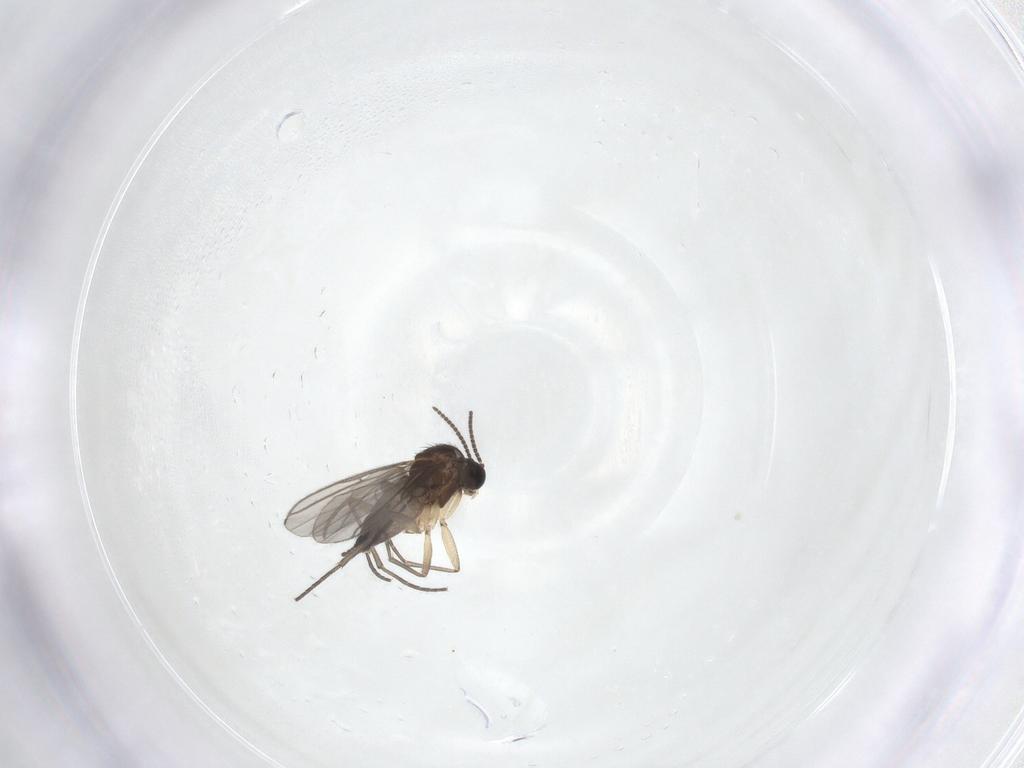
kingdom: Animalia
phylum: Arthropoda
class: Insecta
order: Diptera
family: Sciaridae
